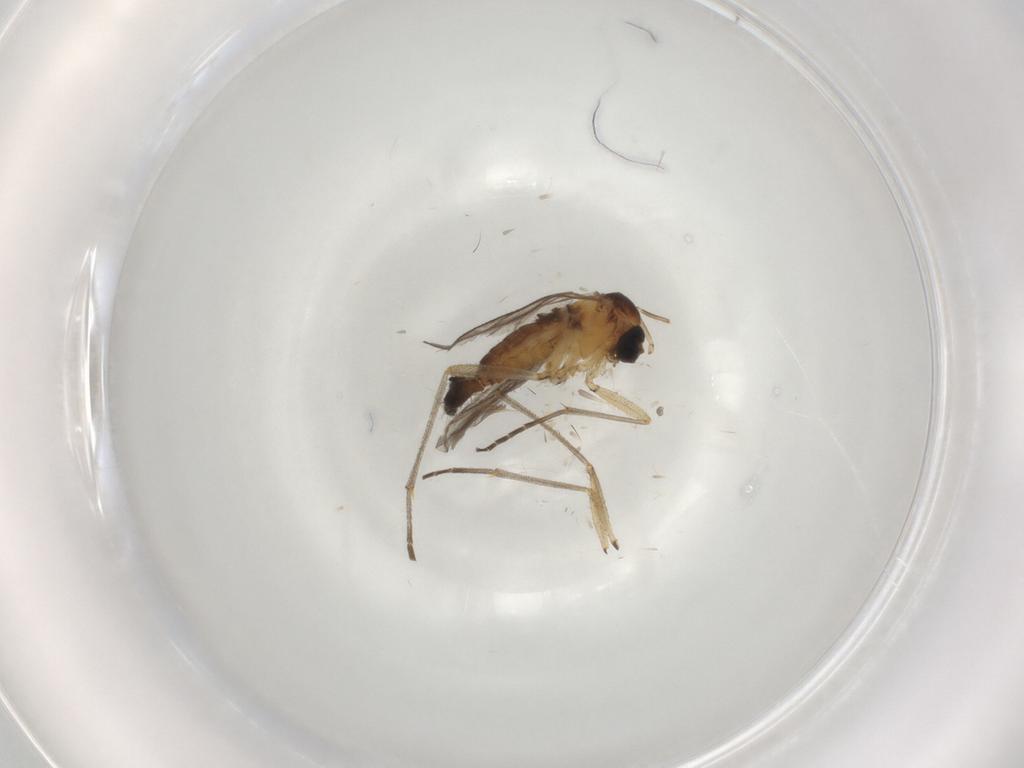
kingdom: Animalia
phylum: Arthropoda
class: Insecta
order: Diptera
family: Sciaridae
